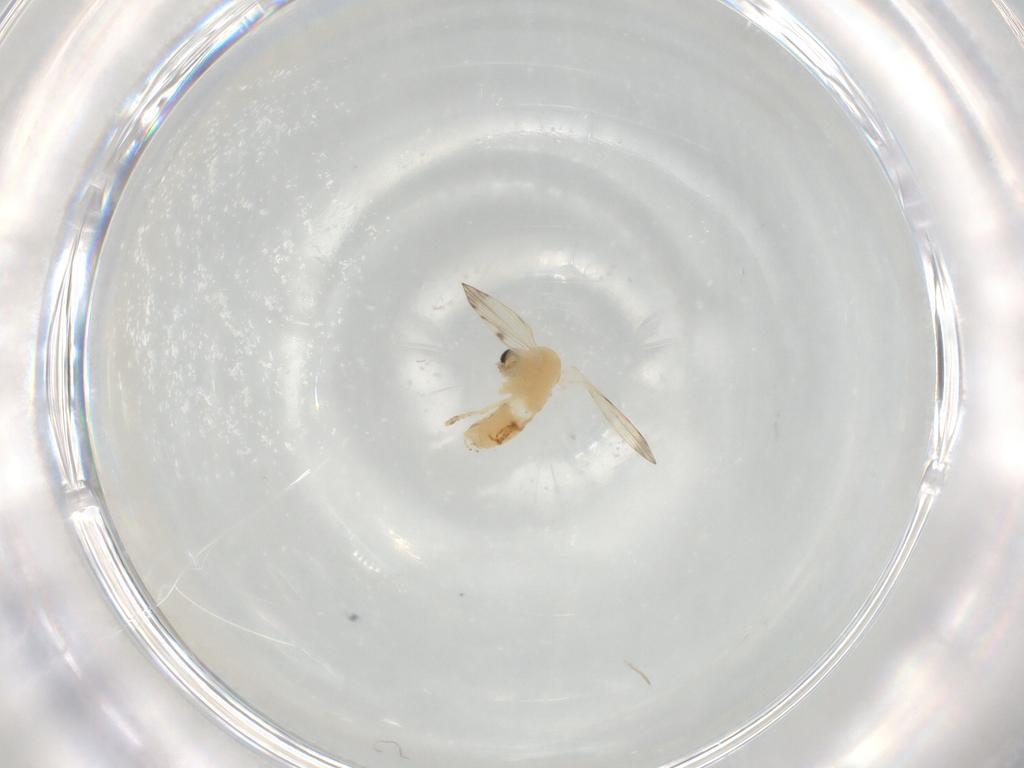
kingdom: Animalia
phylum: Arthropoda
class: Insecta
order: Diptera
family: Psychodidae
